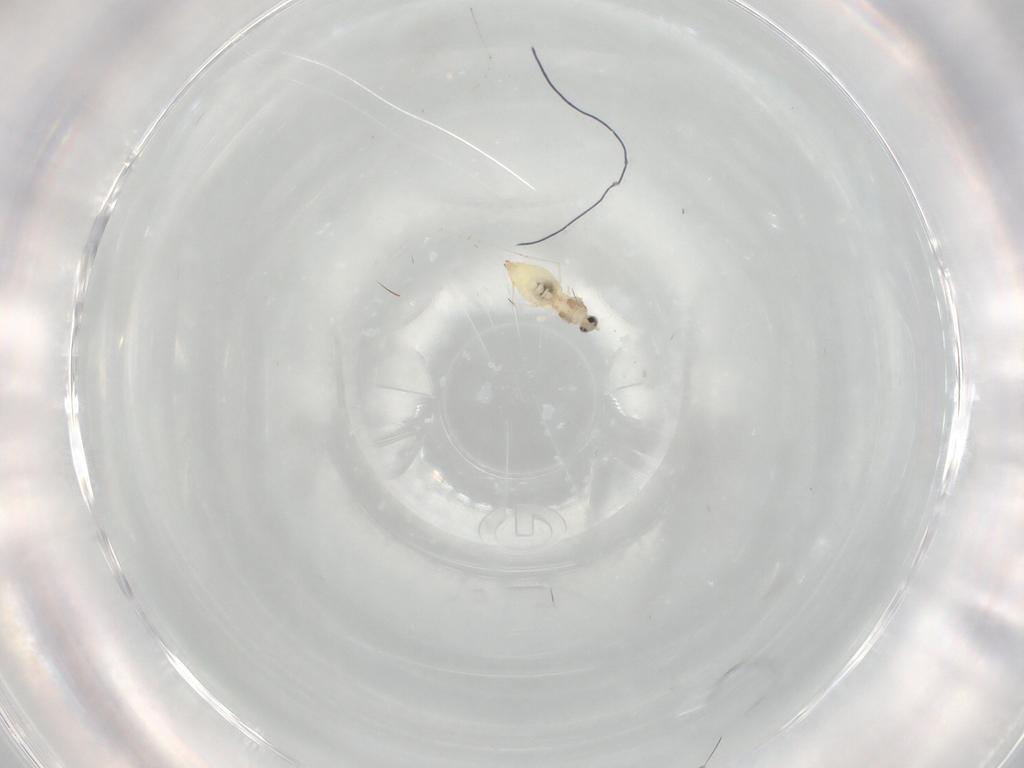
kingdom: Animalia
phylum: Arthropoda
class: Insecta
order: Diptera
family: Cecidomyiidae
